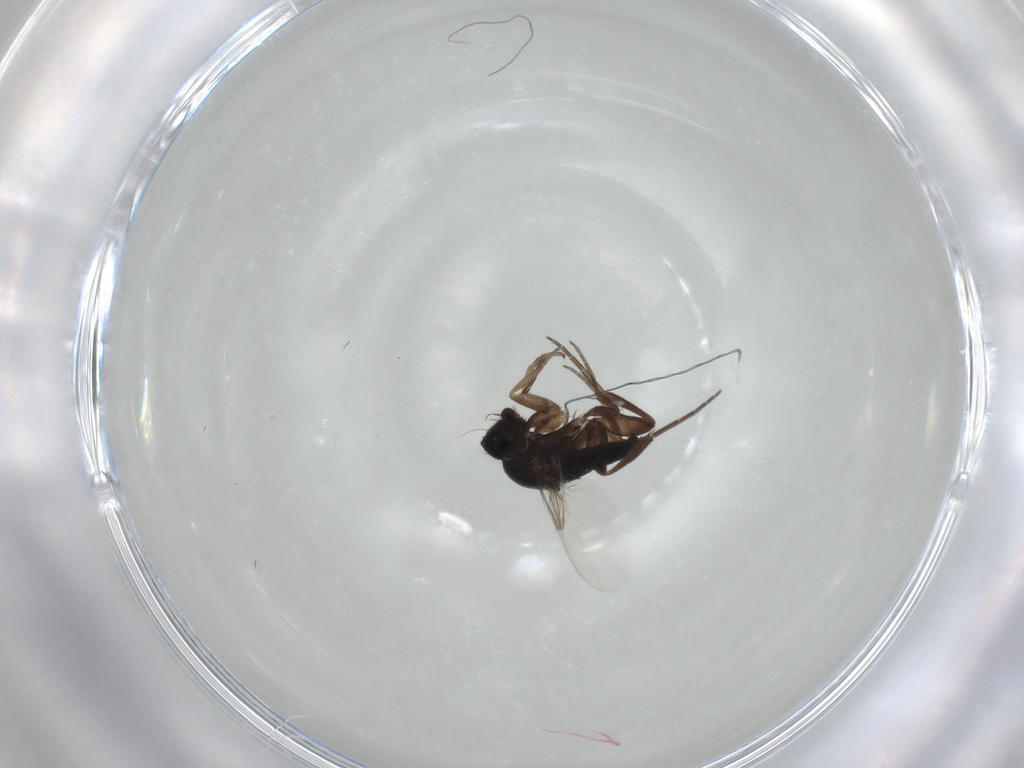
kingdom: Animalia
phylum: Arthropoda
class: Insecta
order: Diptera
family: Phoridae
